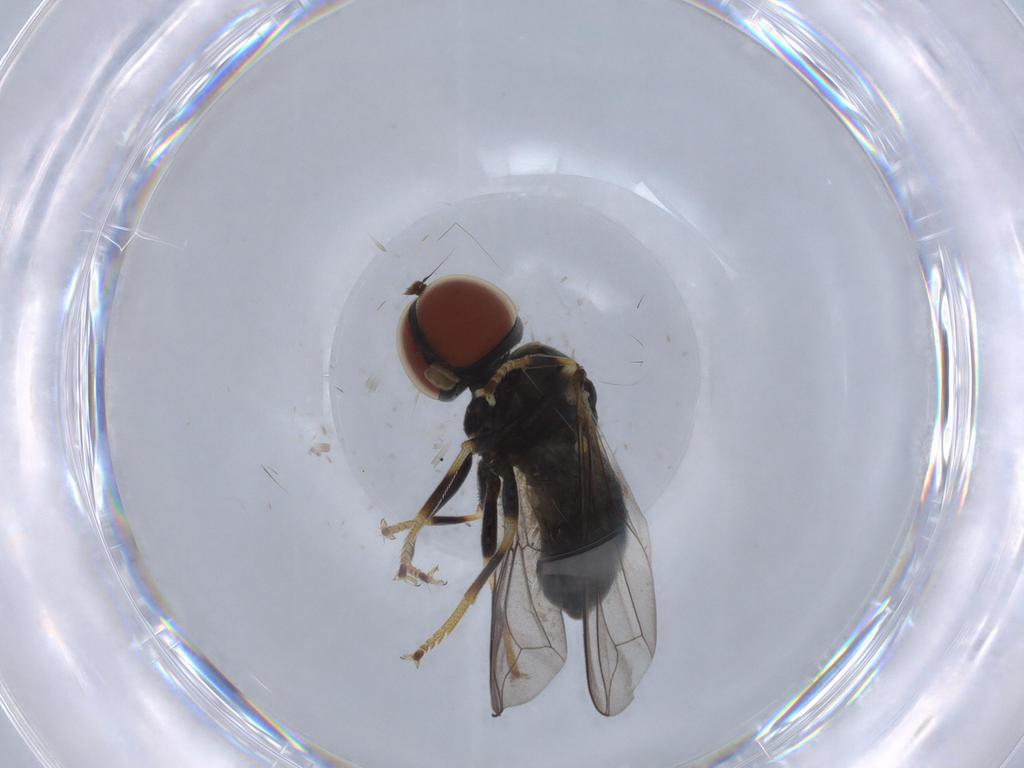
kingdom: Animalia
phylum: Arthropoda
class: Insecta
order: Diptera
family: Pipunculidae
